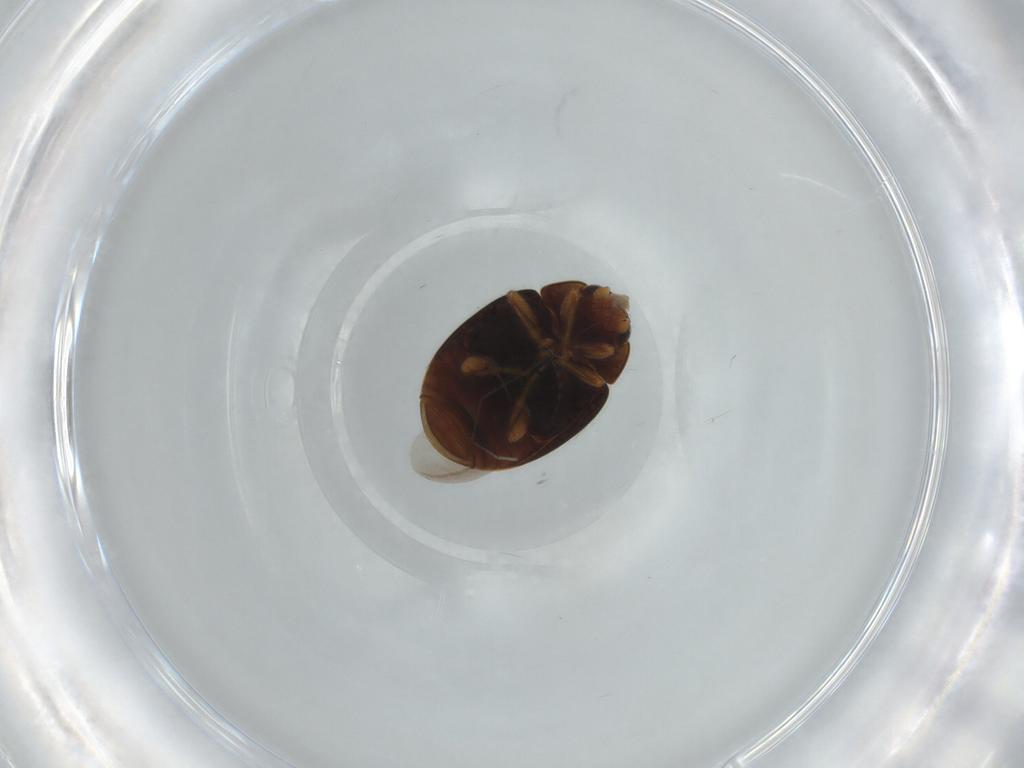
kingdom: Animalia
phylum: Arthropoda
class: Insecta
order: Coleoptera
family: Coccinellidae
